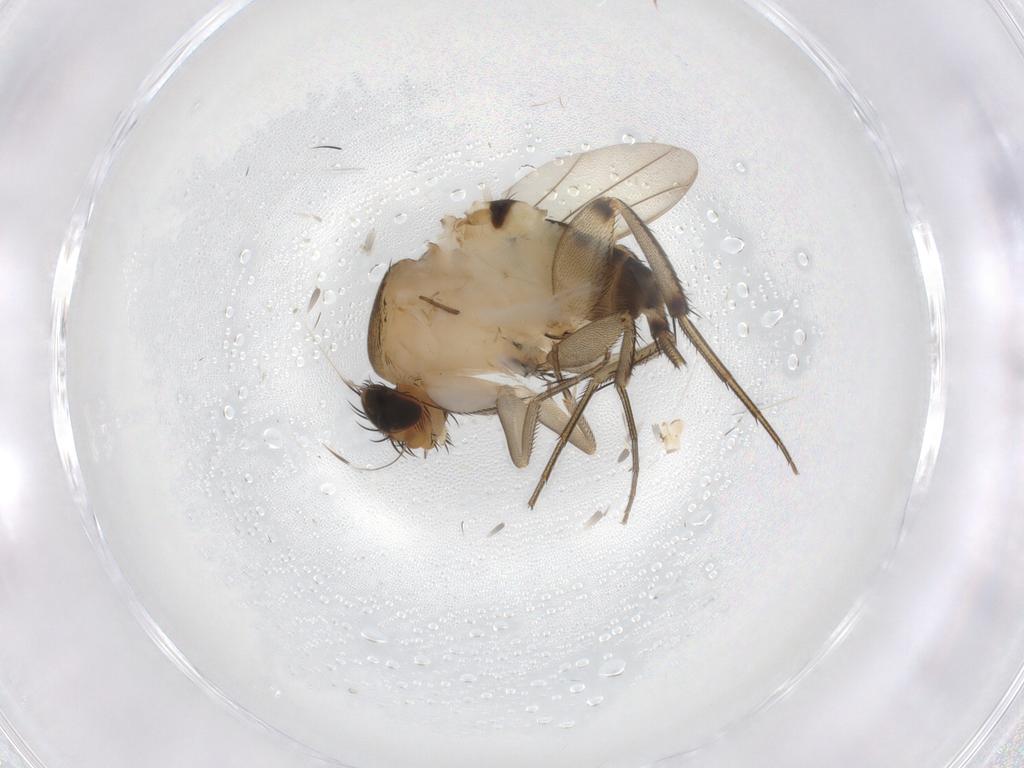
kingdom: Animalia
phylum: Arthropoda
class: Insecta
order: Diptera
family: Phoridae
